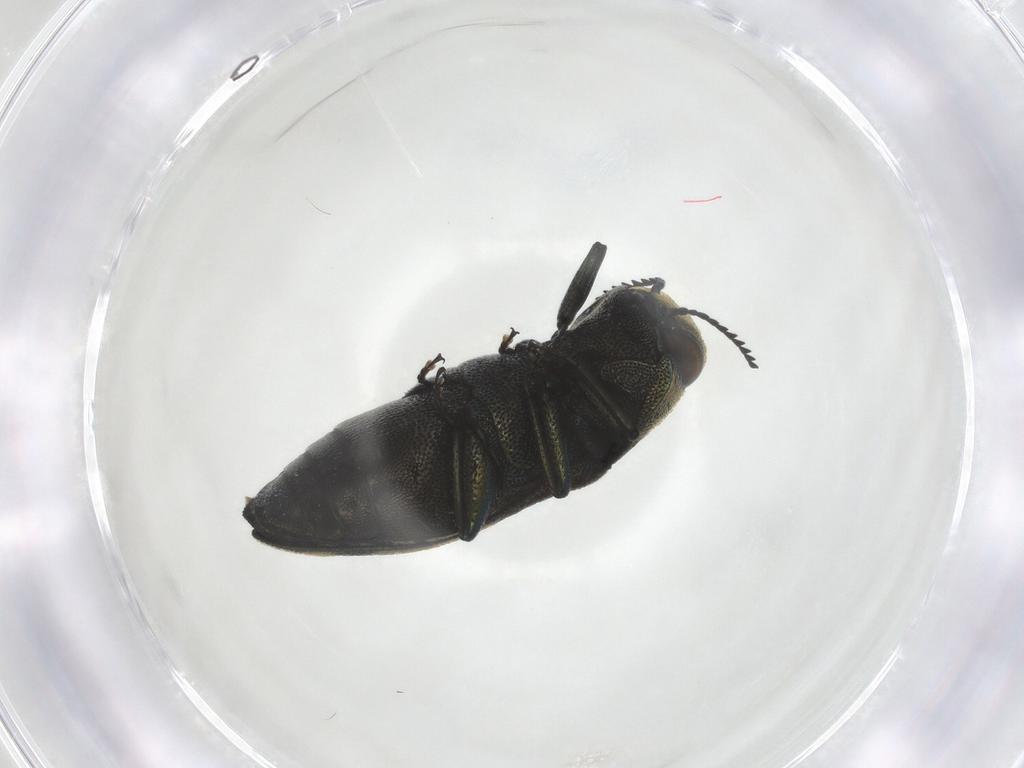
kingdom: Animalia
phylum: Arthropoda
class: Insecta
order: Coleoptera
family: Buprestidae
